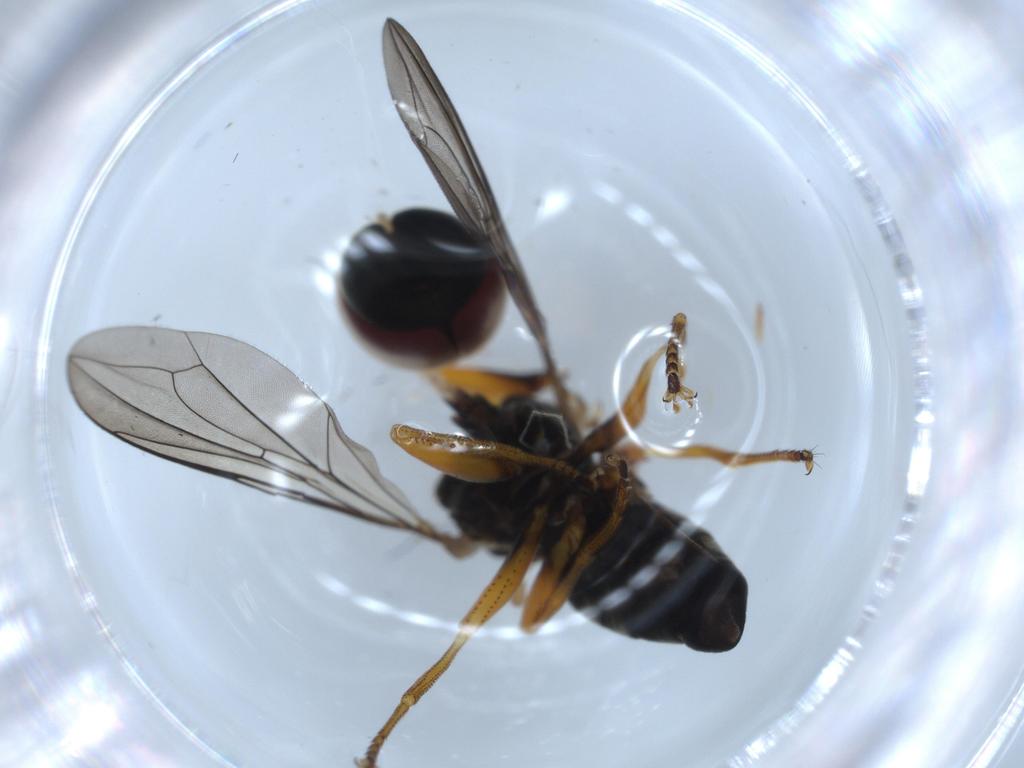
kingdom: Animalia
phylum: Arthropoda
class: Insecta
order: Diptera
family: Pipunculidae
